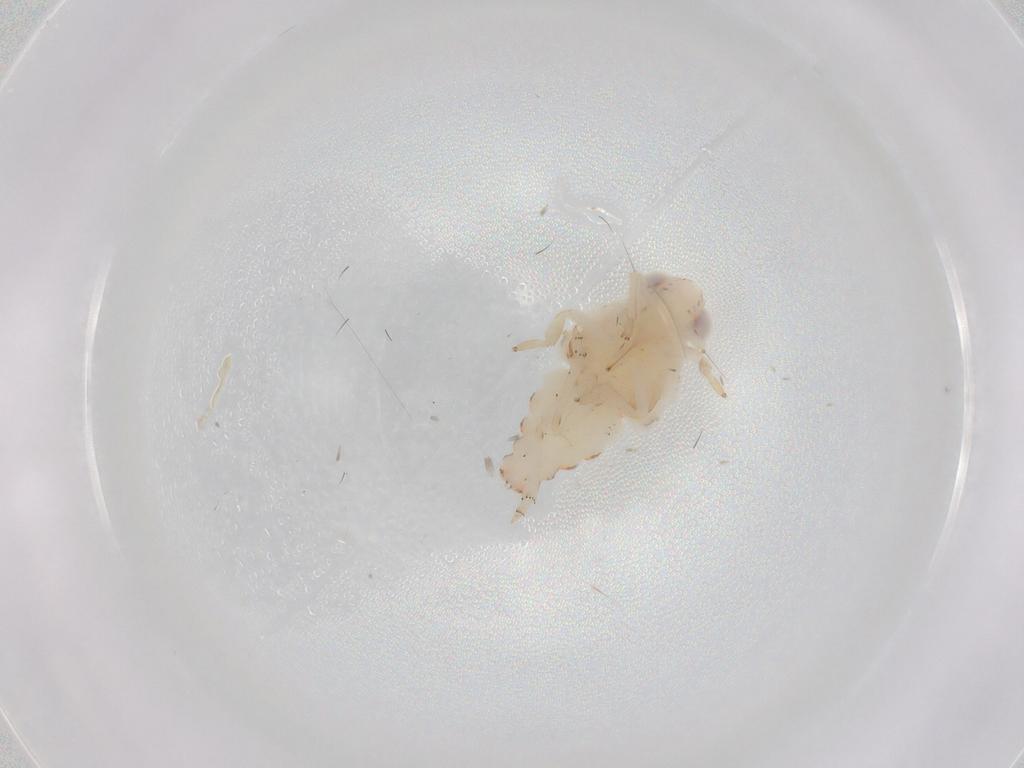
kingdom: Animalia
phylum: Arthropoda
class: Insecta
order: Hemiptera
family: Nogodinidae
